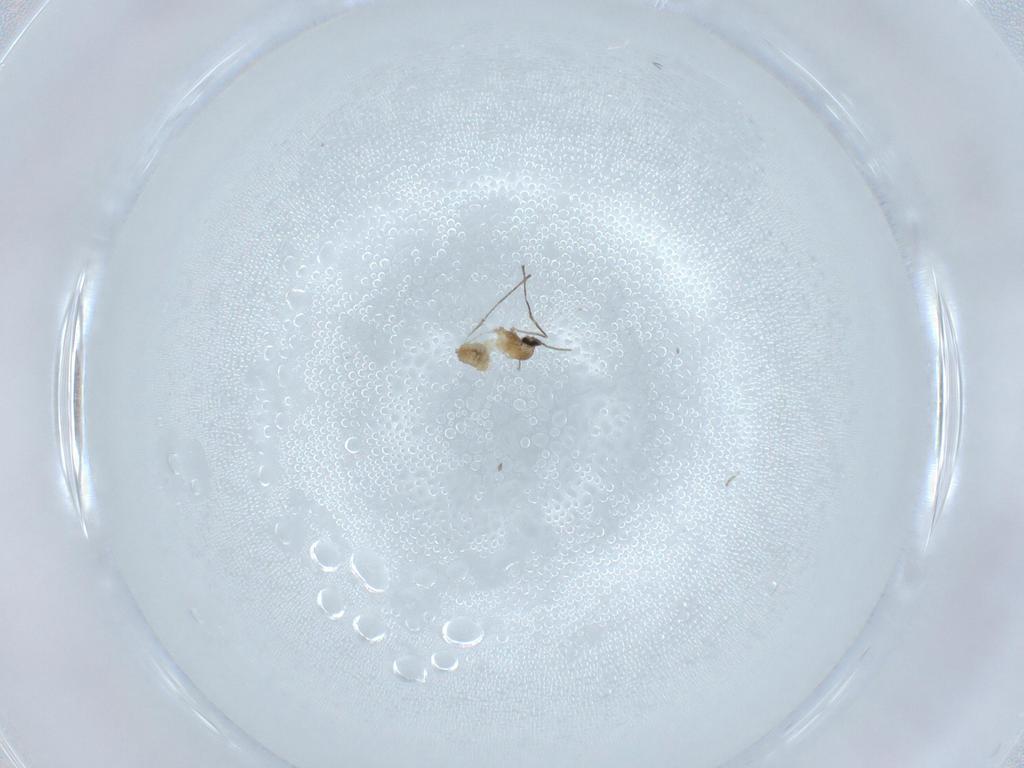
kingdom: Animalia
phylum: Arthropoda
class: Insecta
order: Diptera
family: Cecidomyiidae
